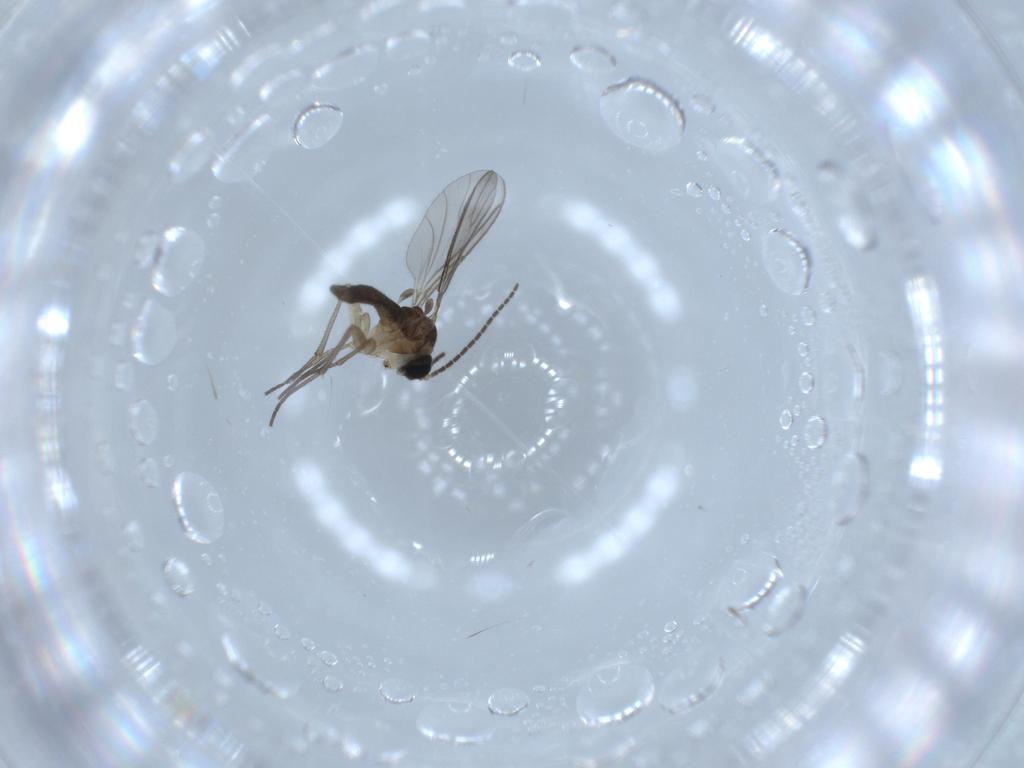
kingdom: Animalia
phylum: Arthropoda
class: Insecta
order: Diptera
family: Sciaridae
